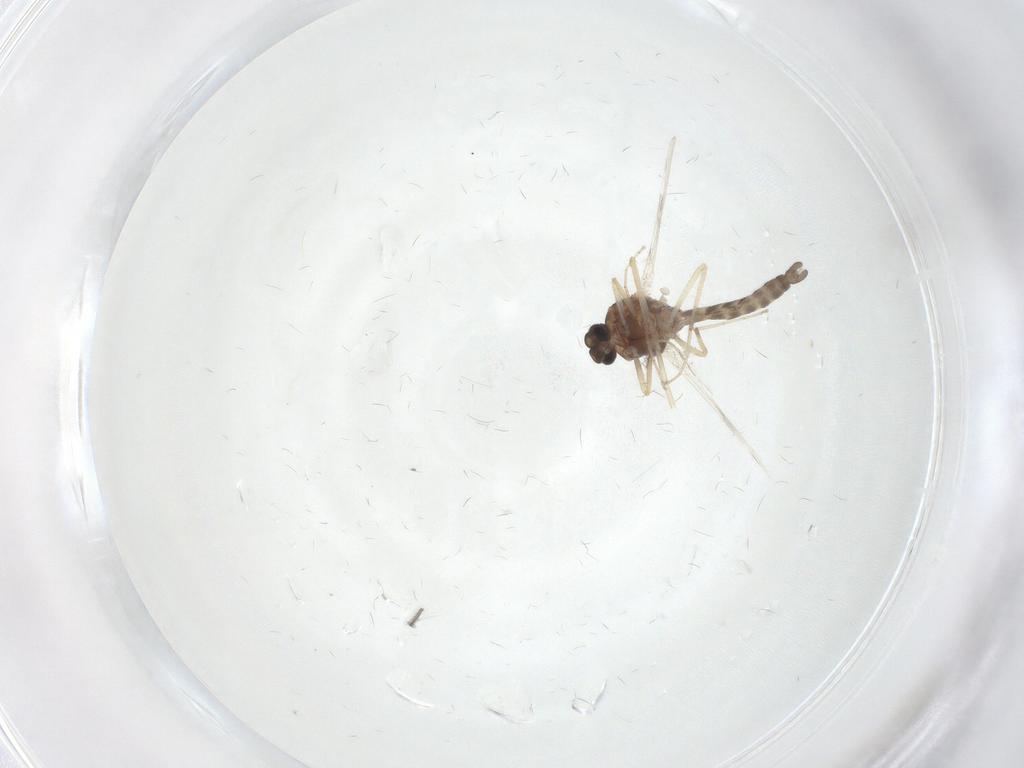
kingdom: Animalia
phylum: Arthropoda
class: Insecta
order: Diptera
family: Ceratopogonidae
